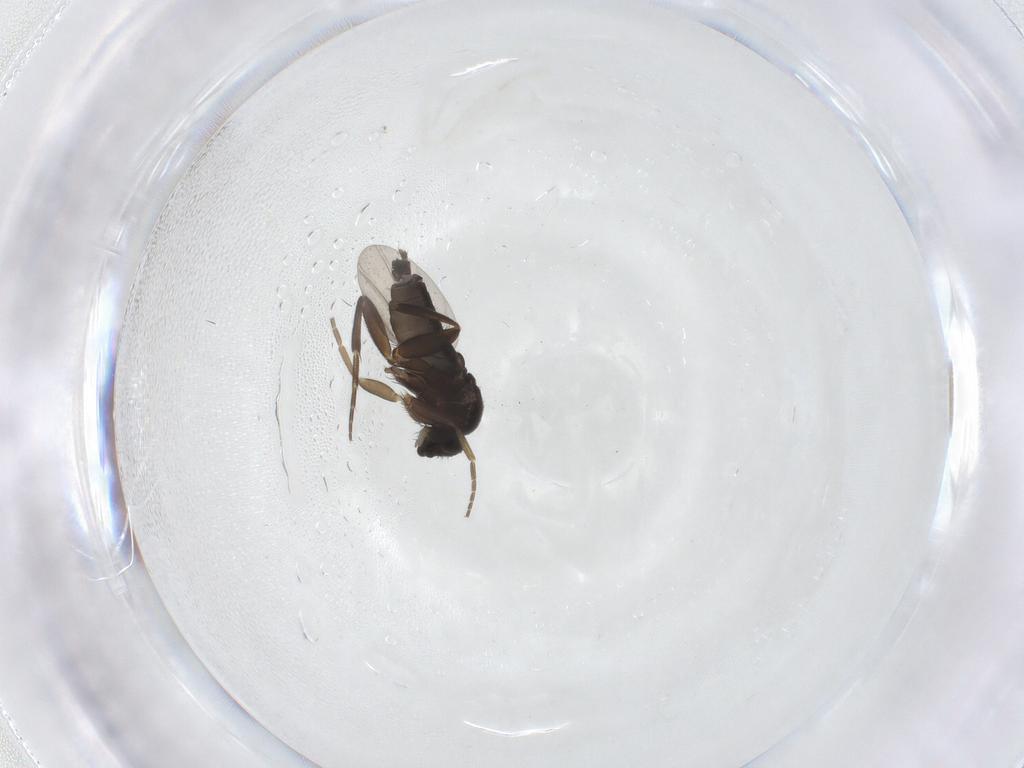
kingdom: Animalia
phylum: Arthropoda
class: Insecta
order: Diptera
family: Phoridae
